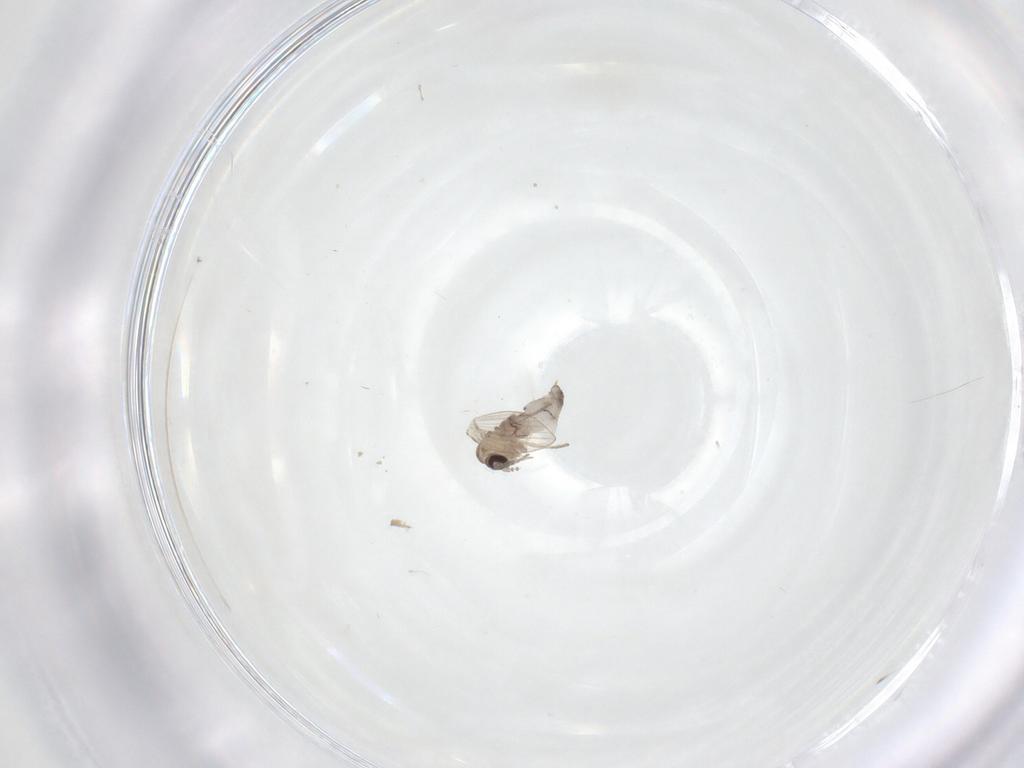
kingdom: Animalia
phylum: Arthropoda
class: Insecta
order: Diptera
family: Psychodidae
